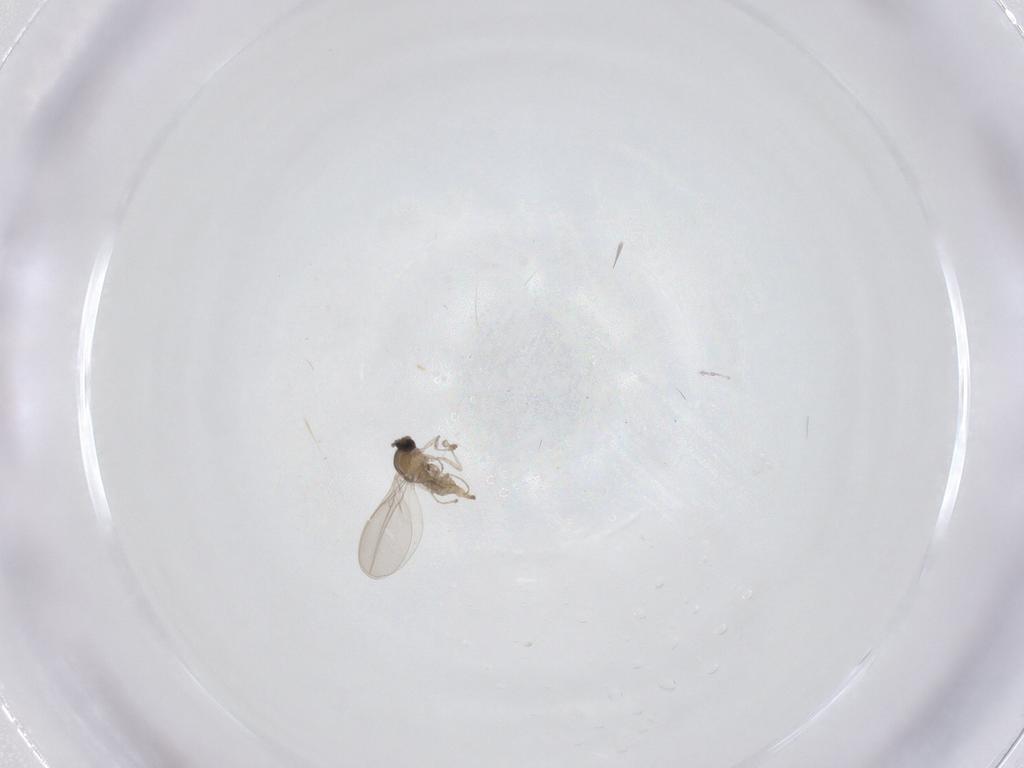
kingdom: Animalia
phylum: Arthropoda
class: Insecta
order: Diptera
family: Cecidomyiidae
